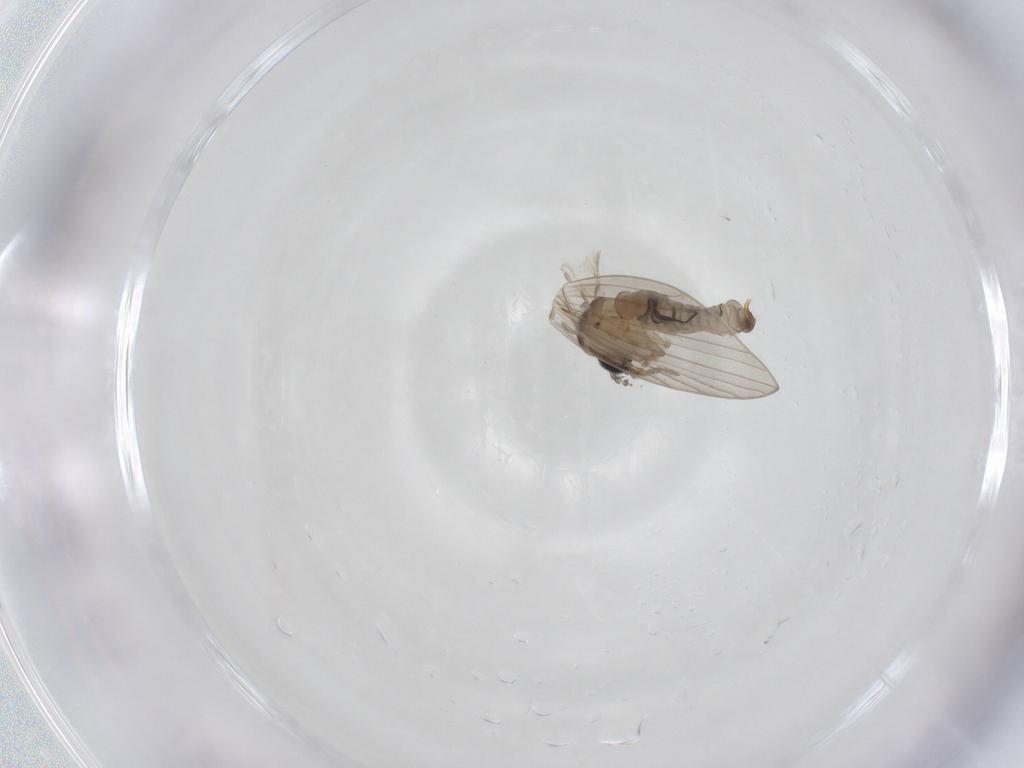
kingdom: Animalia
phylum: Arthropoda
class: Insecta
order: Diptera
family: Psychodidae
